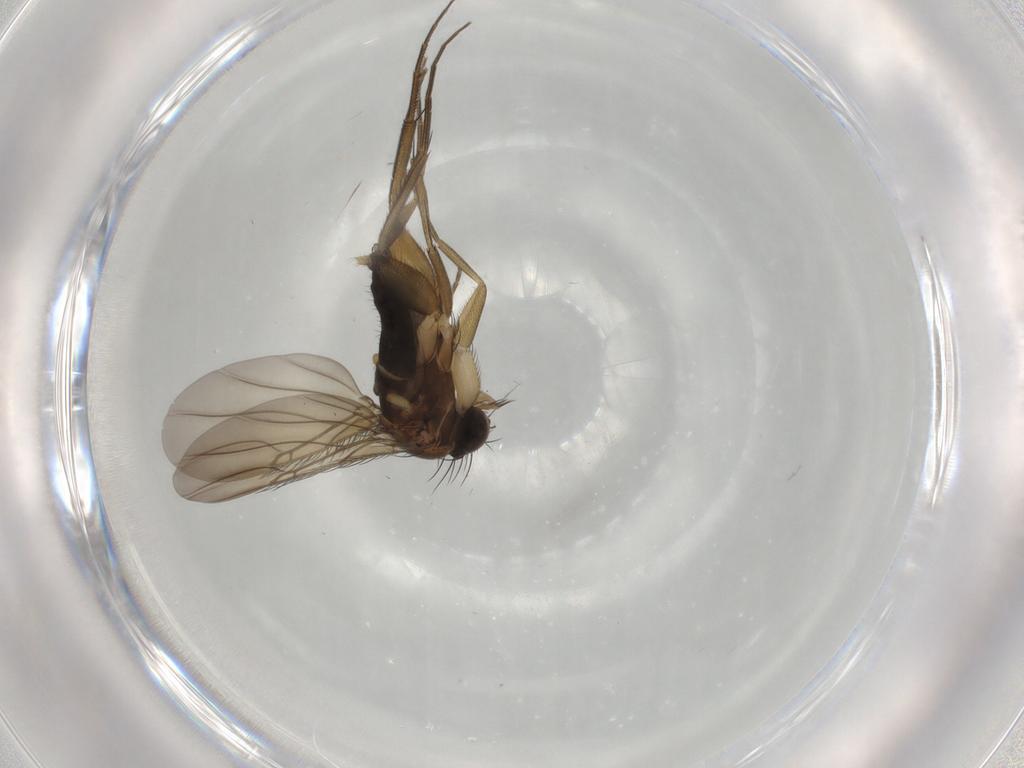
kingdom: Animalia
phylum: Arthropoda
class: Insecta
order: Diptera
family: Phoridae
